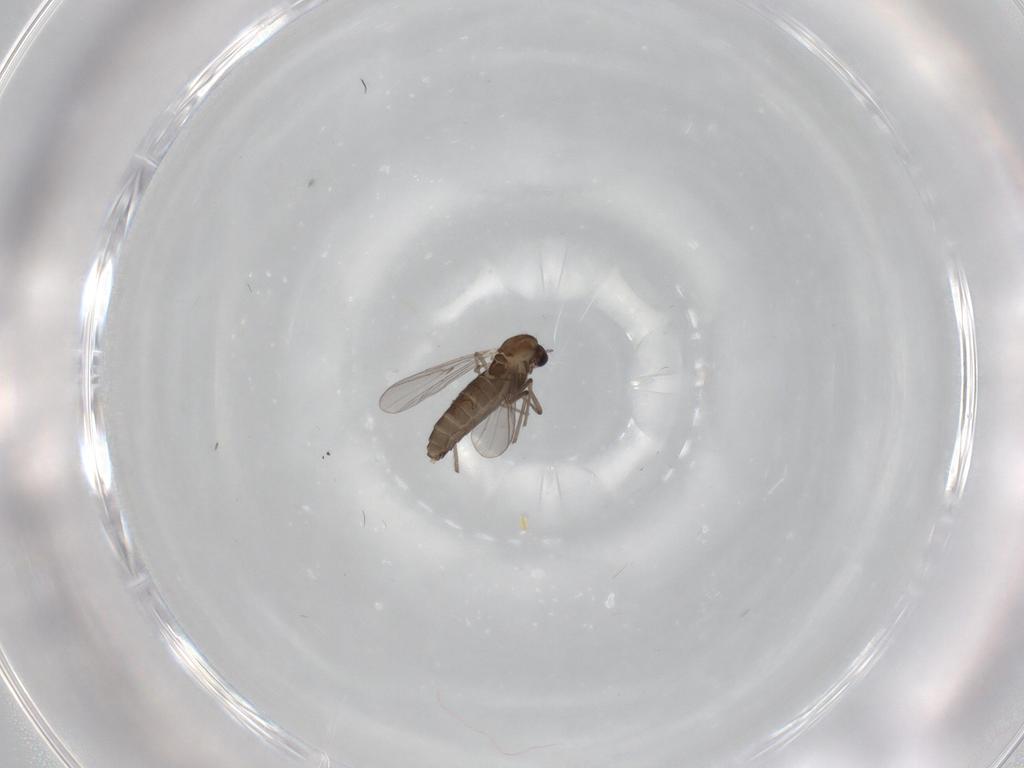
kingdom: Animalia
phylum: Arthropoda
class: Insecta
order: Diptera
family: Chironomidae
